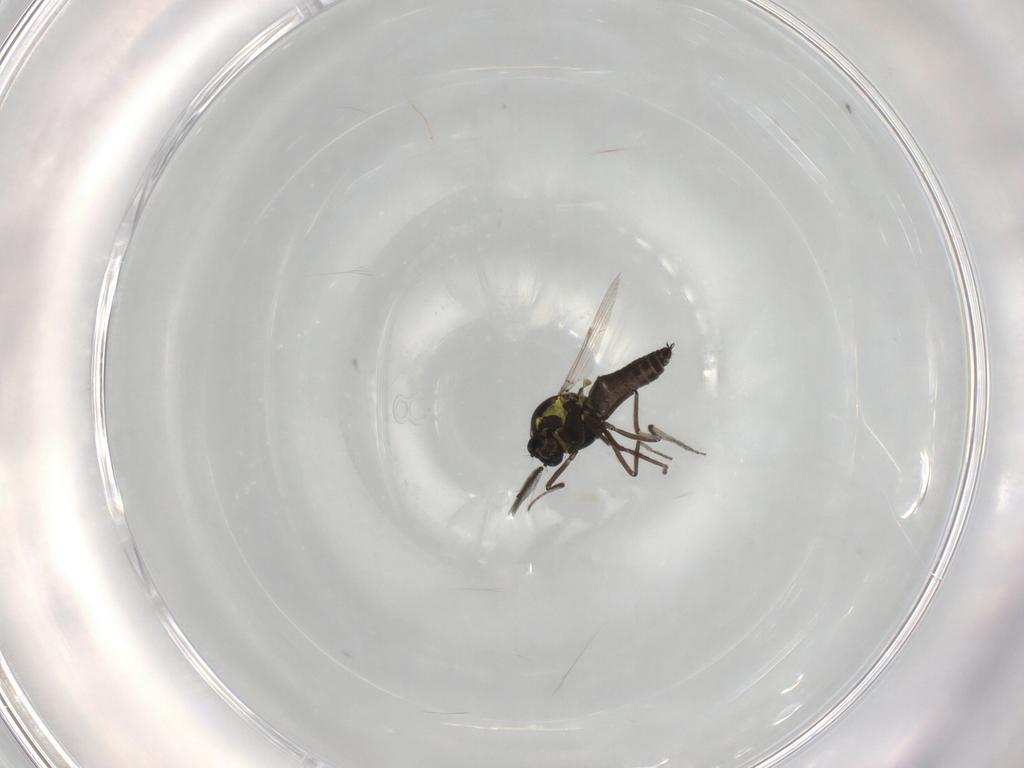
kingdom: Animalia
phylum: Arthropoda
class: Insecta
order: Diptera
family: Ceratopogonidae
